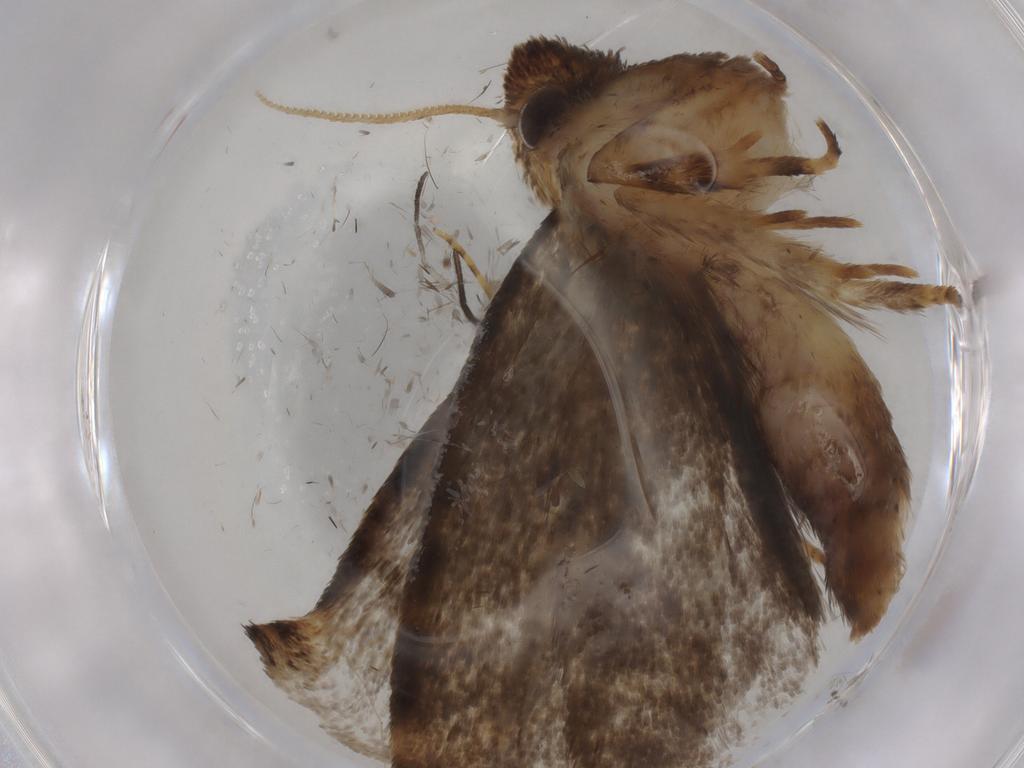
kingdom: Animalia
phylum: Arthropoda
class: Insecta
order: Lepidoptera
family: Tineidae
